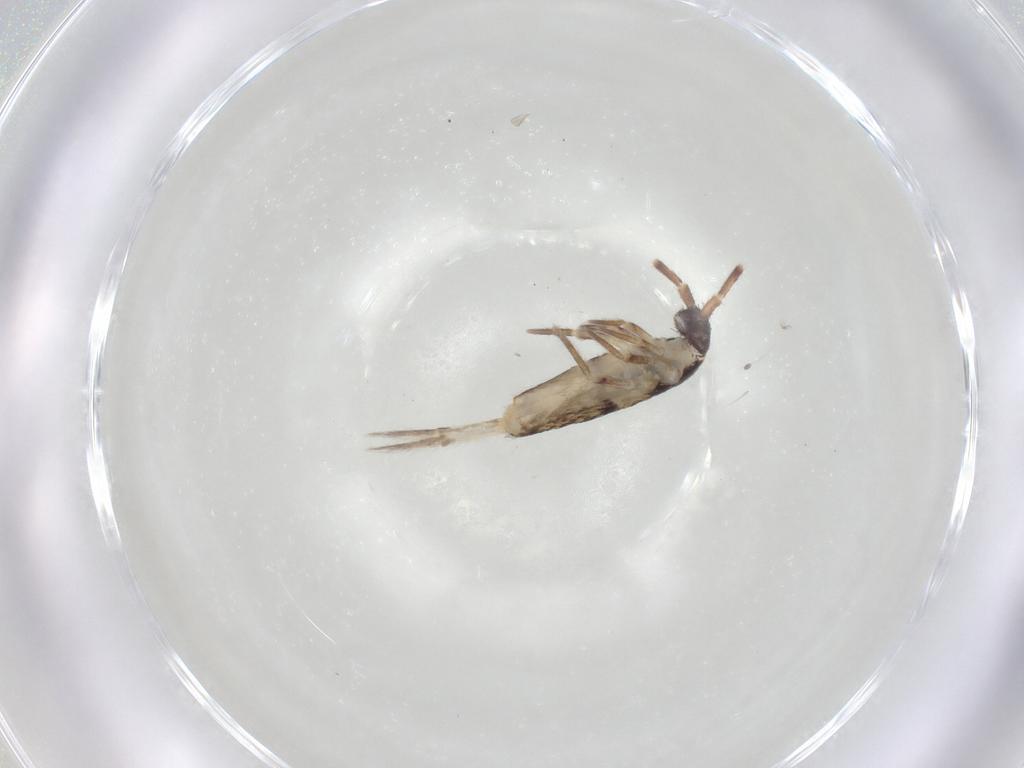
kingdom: Animalia
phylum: Arthropoda
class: Collembola
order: Entomobryomorpha
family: Entomobryidae
